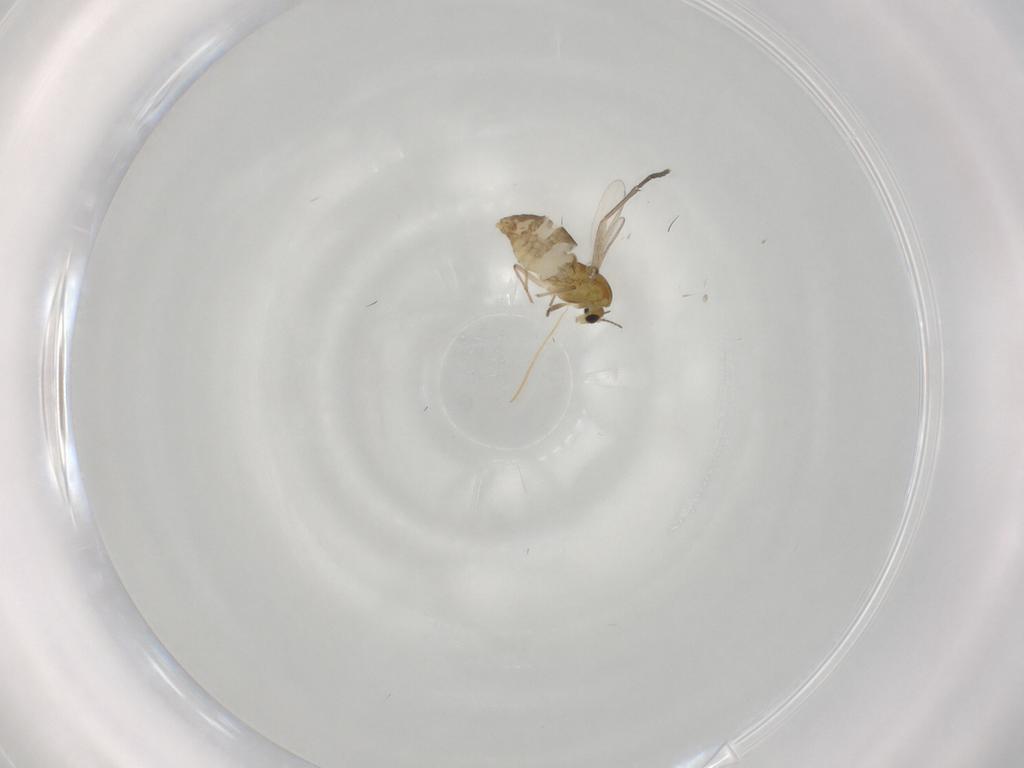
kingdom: Animalia
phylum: Arthropoda
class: Insecta
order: Diptera
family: Chironomidae
